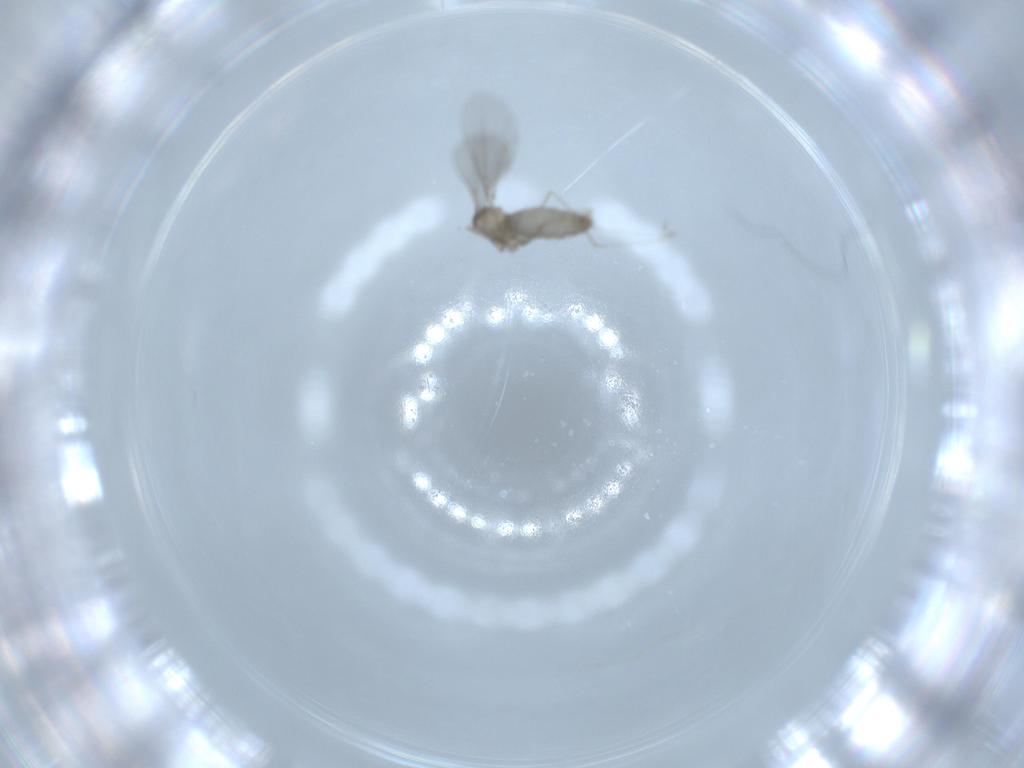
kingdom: Animalia
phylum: Arthropoda
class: Insecta
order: Diptera
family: Cecidomyiidae
